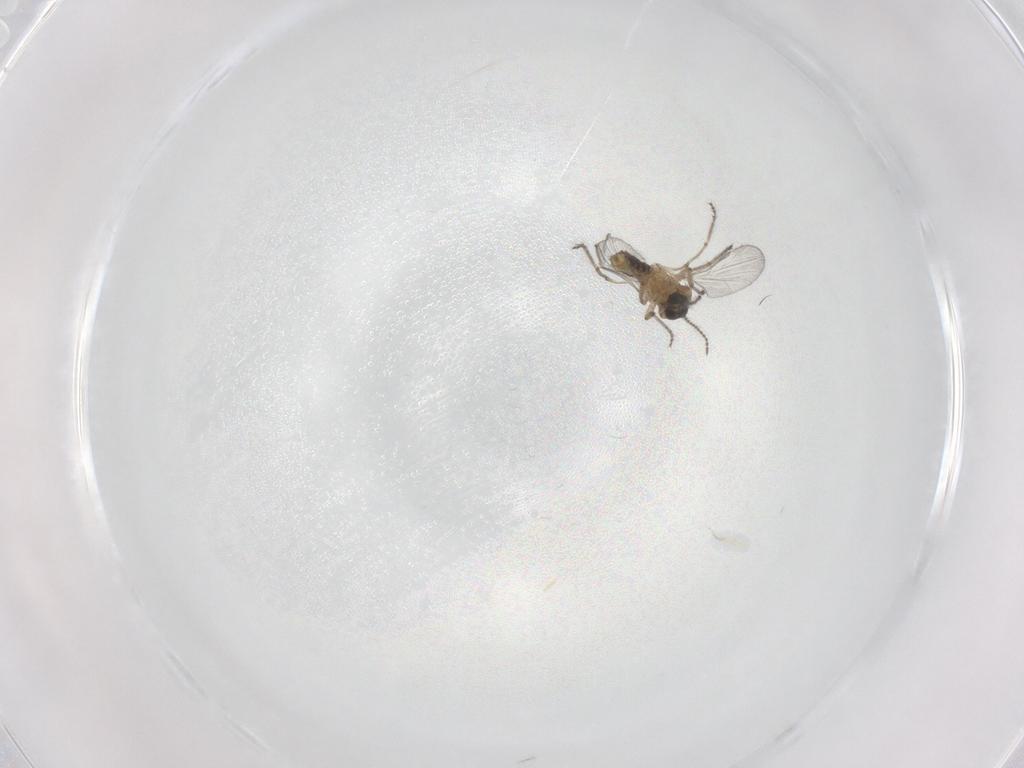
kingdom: Animalia
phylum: Arthropoda
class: Insecta
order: Diptera
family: Ceratopogonidae
